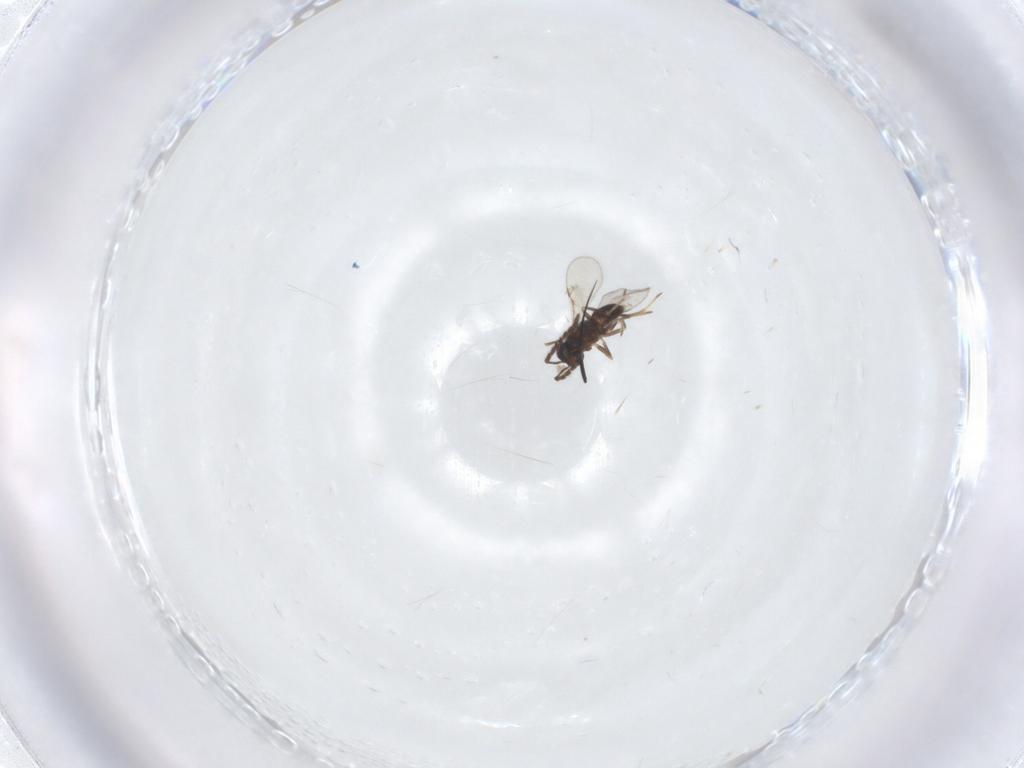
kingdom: Animalia
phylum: Arthropoda
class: Insecta
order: Hymenoptera
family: Encyrtidae
